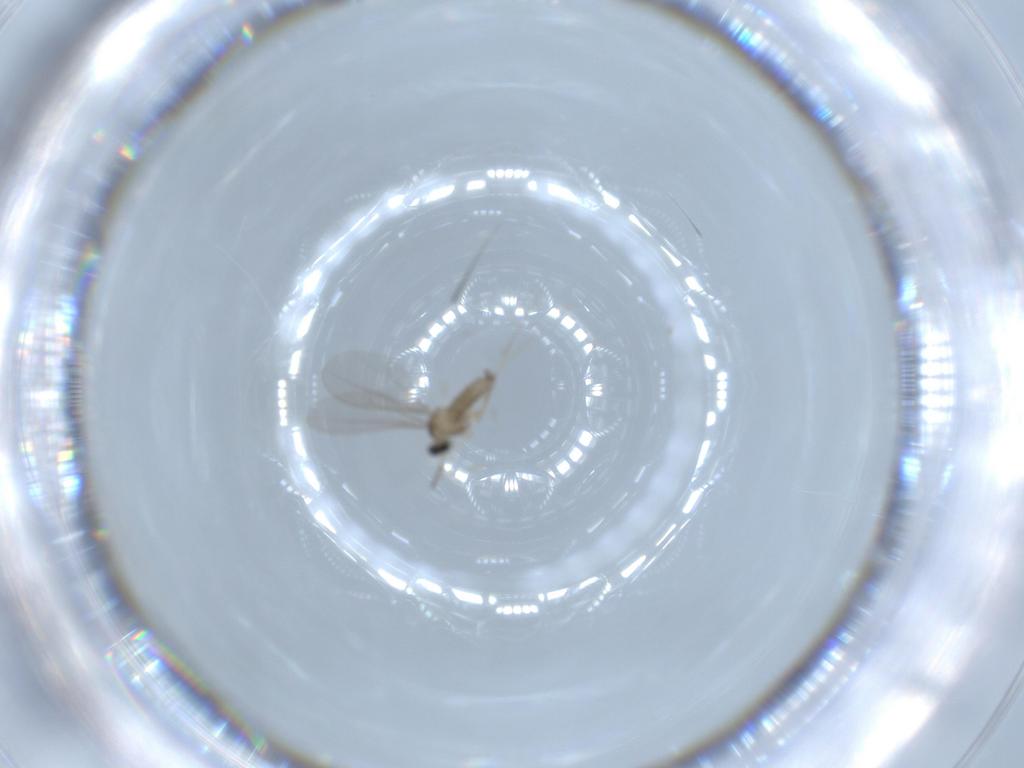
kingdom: Animalia
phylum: Arthropoda
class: Insecta
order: Diptera
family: Cecidomyiidae
